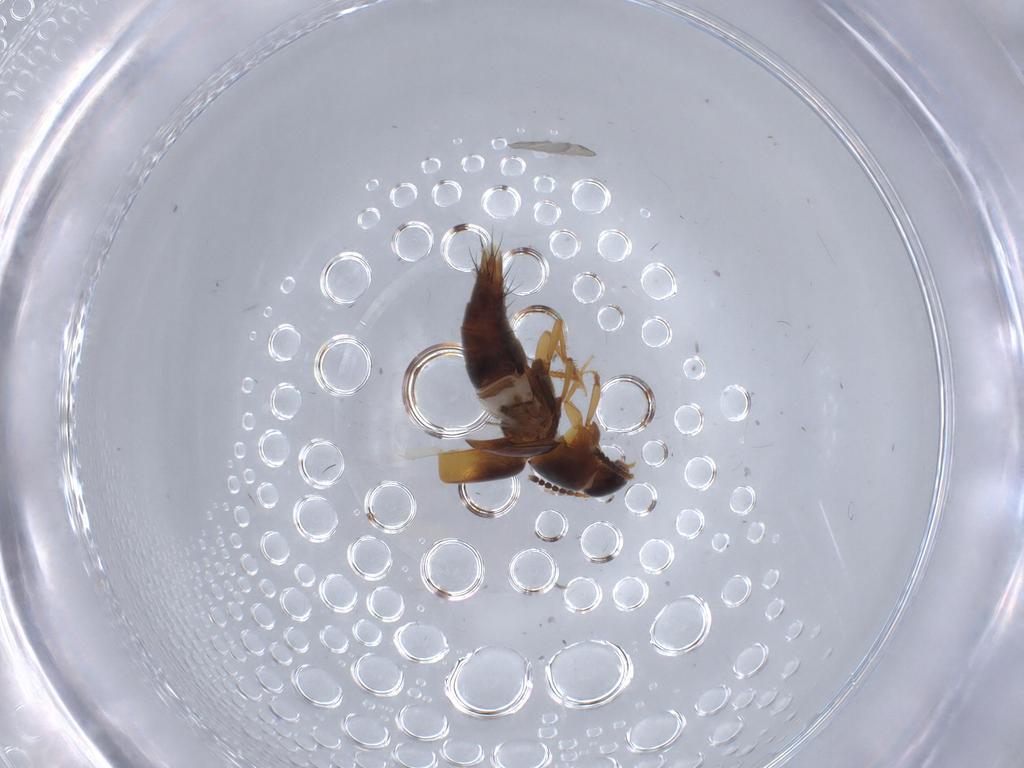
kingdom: Animalia
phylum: Arthropoda
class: Insecta
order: Coleoptera
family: Staphylinidae
